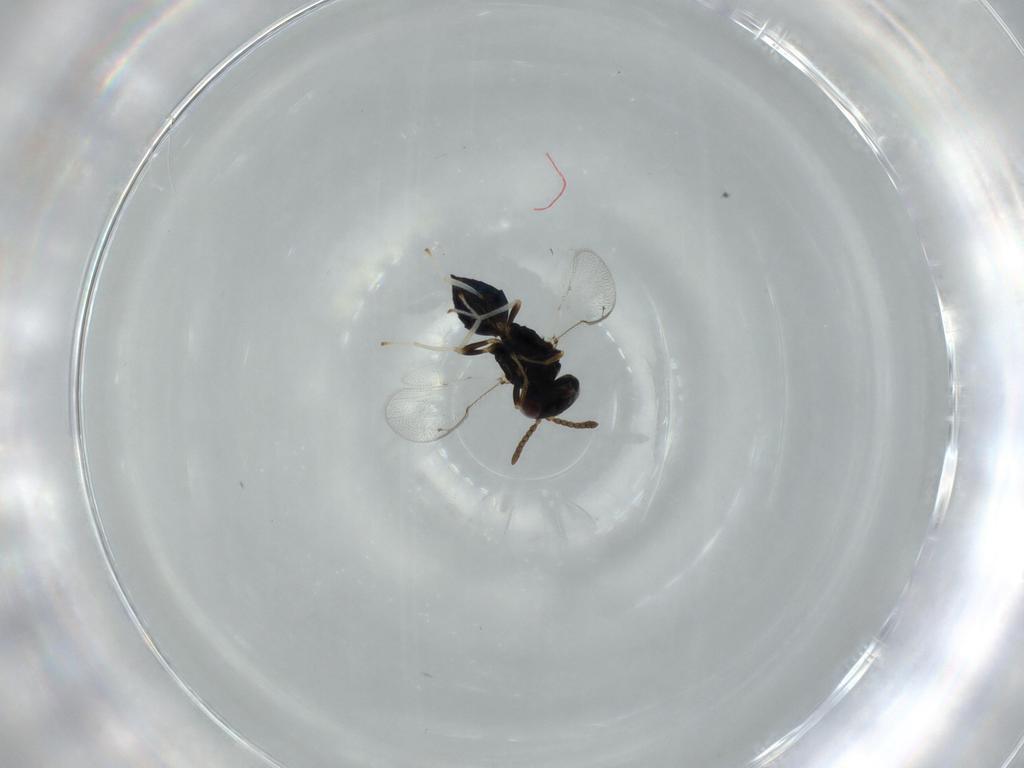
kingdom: Animalia
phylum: Arthropoda
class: Insecta
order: Hymenoptera
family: Pteromalidae
